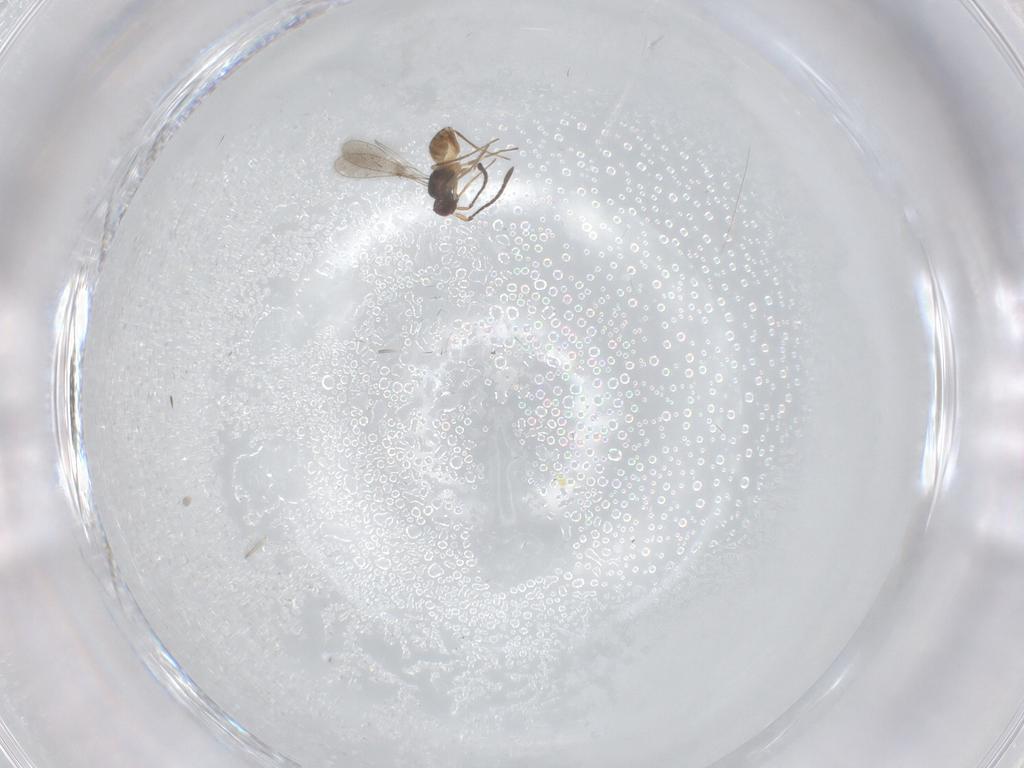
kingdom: Animalia
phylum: Arthropoda
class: Insecta
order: Hymenoptera
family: Mymaridae
